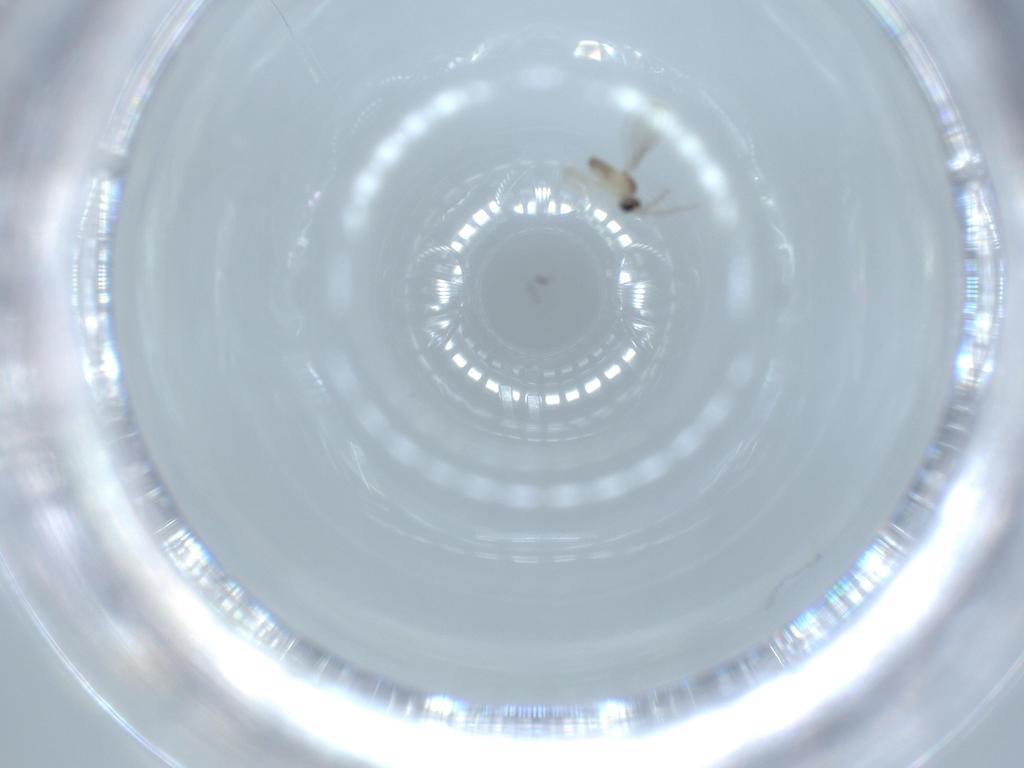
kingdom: Animalia
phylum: Arthropoda
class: Insecta
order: Diptera
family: Cecidomyiidae
